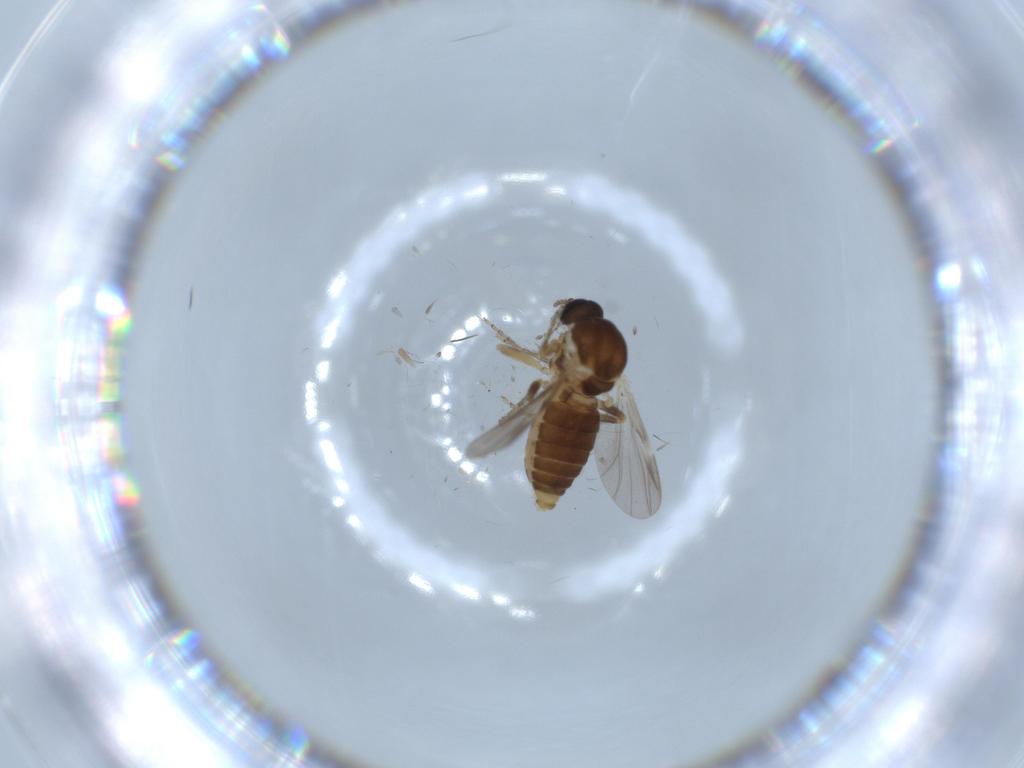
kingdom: Animalia
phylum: Arthropoda
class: Insecta
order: Diptera
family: Ceratopogonidae
